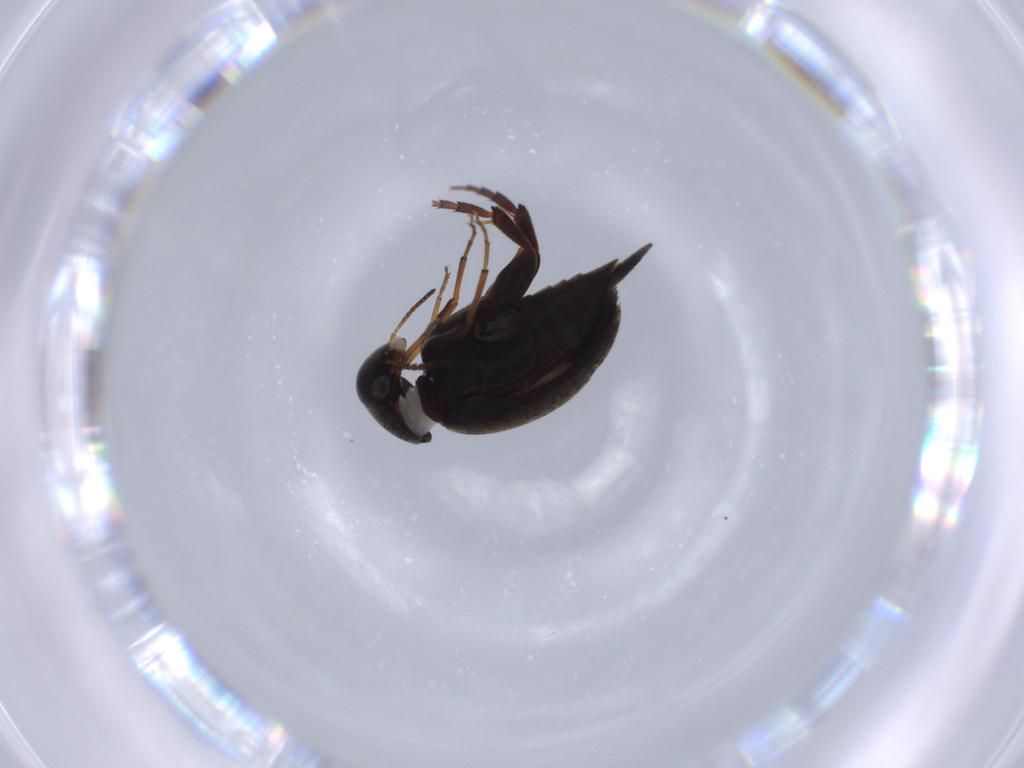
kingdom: Animalia
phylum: Arthropoda
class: Insecta
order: Coleoptera
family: Mordellidae
